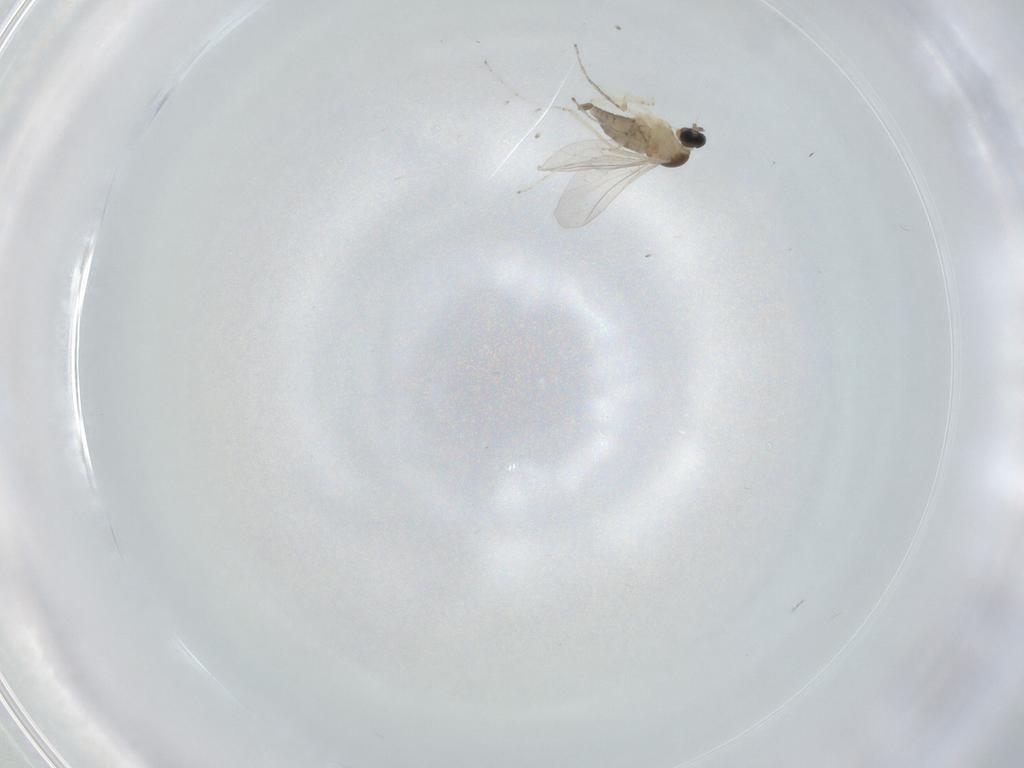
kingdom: Animalia
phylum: Arthropoda
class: Insecta
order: Diptera
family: Cecidomyiidae
